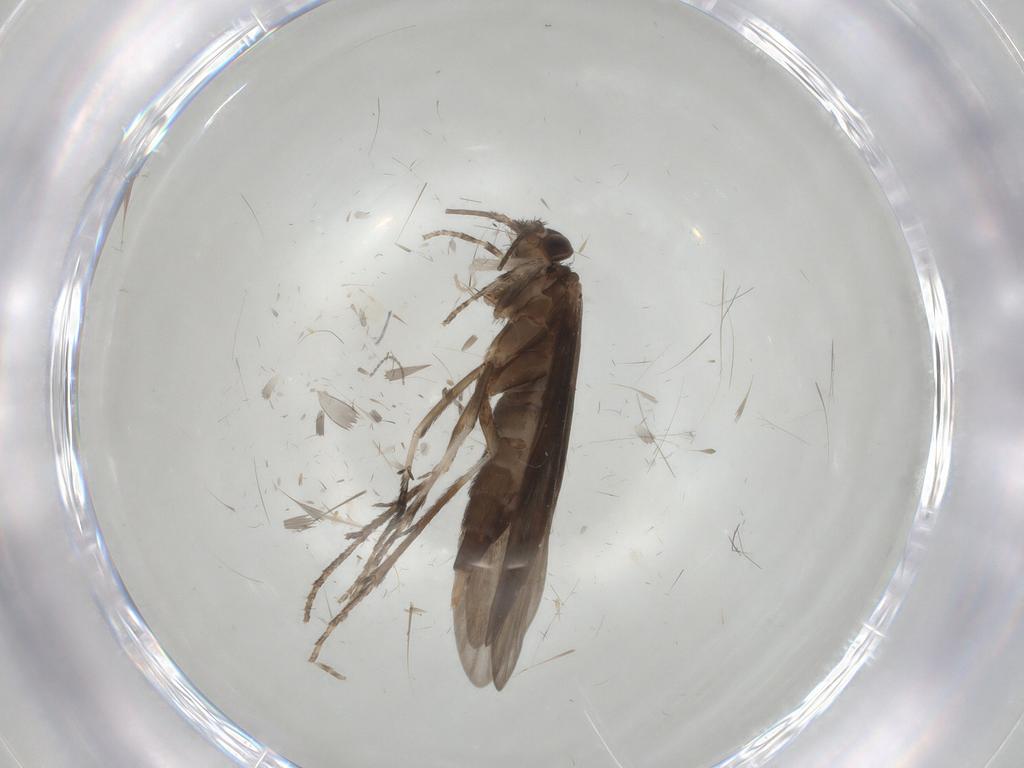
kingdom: Animalia
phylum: Arthropoda
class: Insecta
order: Trichoptera
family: Xiphocentronidae
